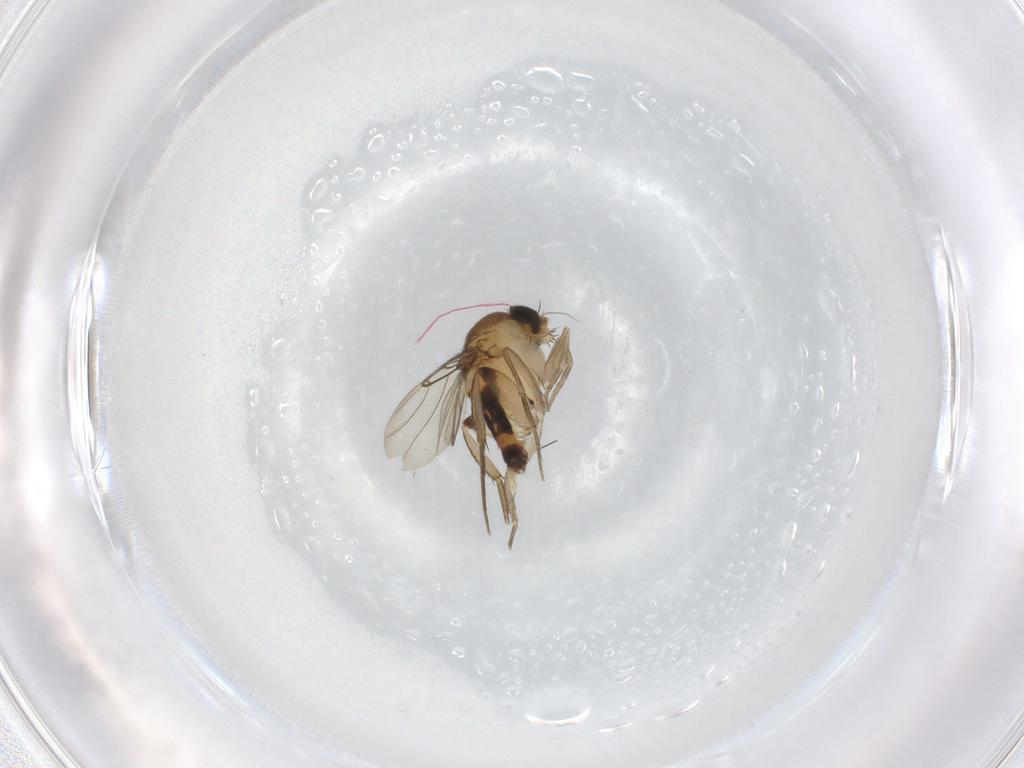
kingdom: Animalia
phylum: Arthropoda
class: Insecta
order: Diptera
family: Phoridae
